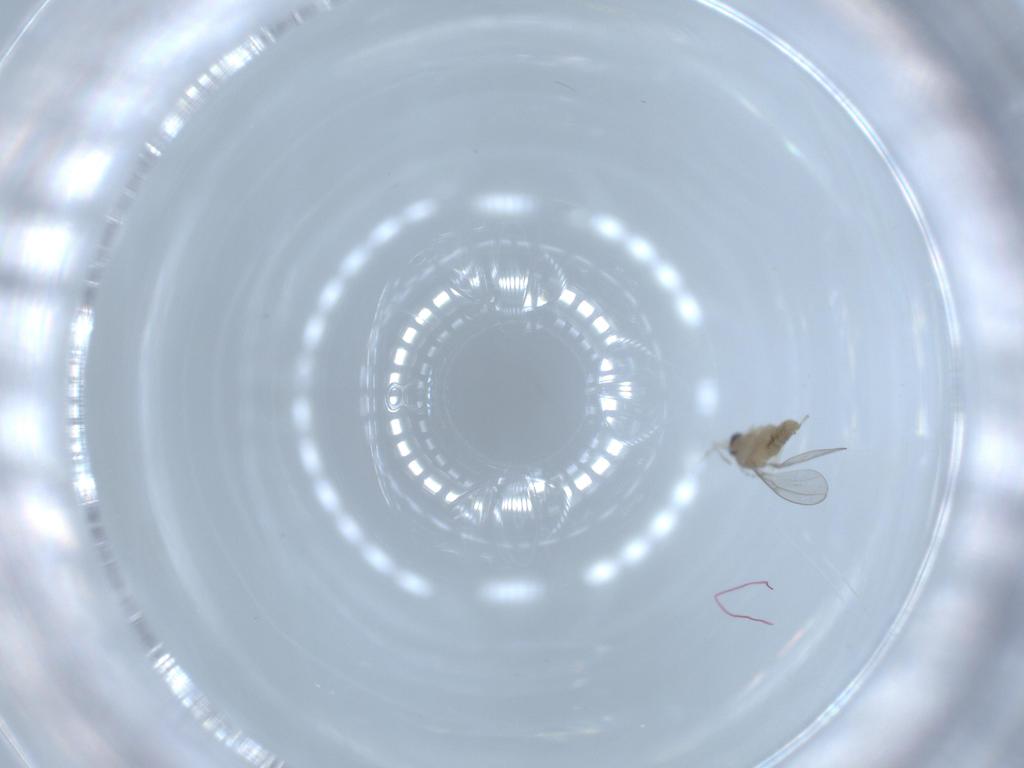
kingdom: Animalia
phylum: Arthropoda
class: Insecta
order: Diptera
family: Cecidomyiidae
